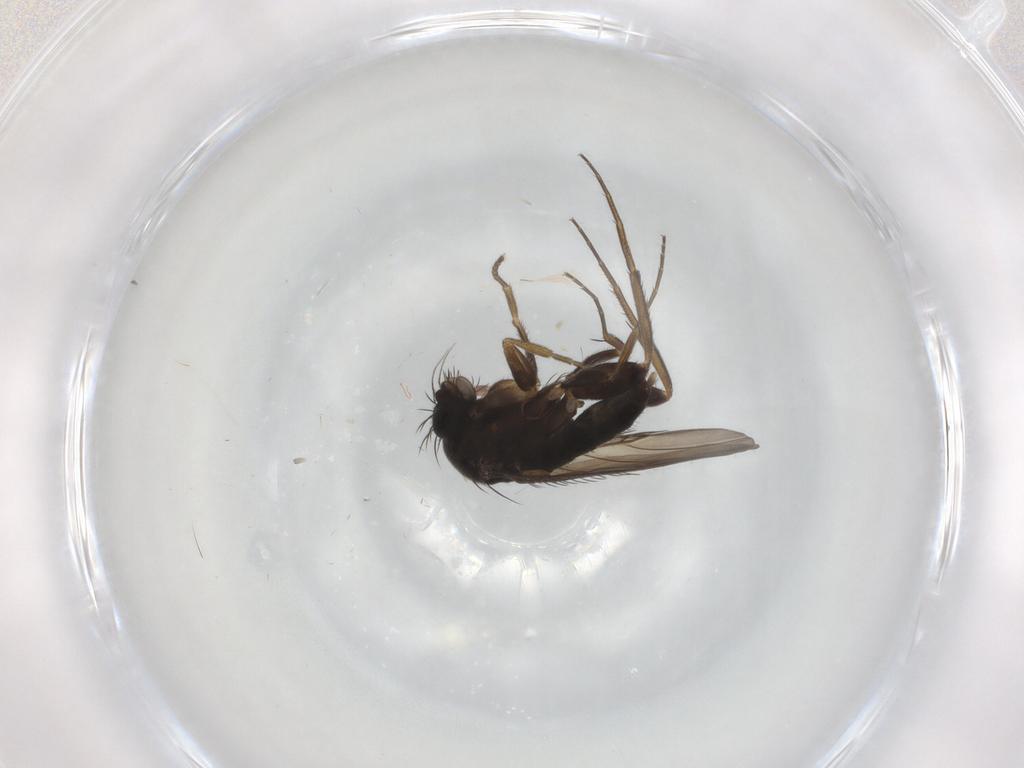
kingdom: Animalia
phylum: Arthropoda
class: Insecta
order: Diptera
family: Phoridae
